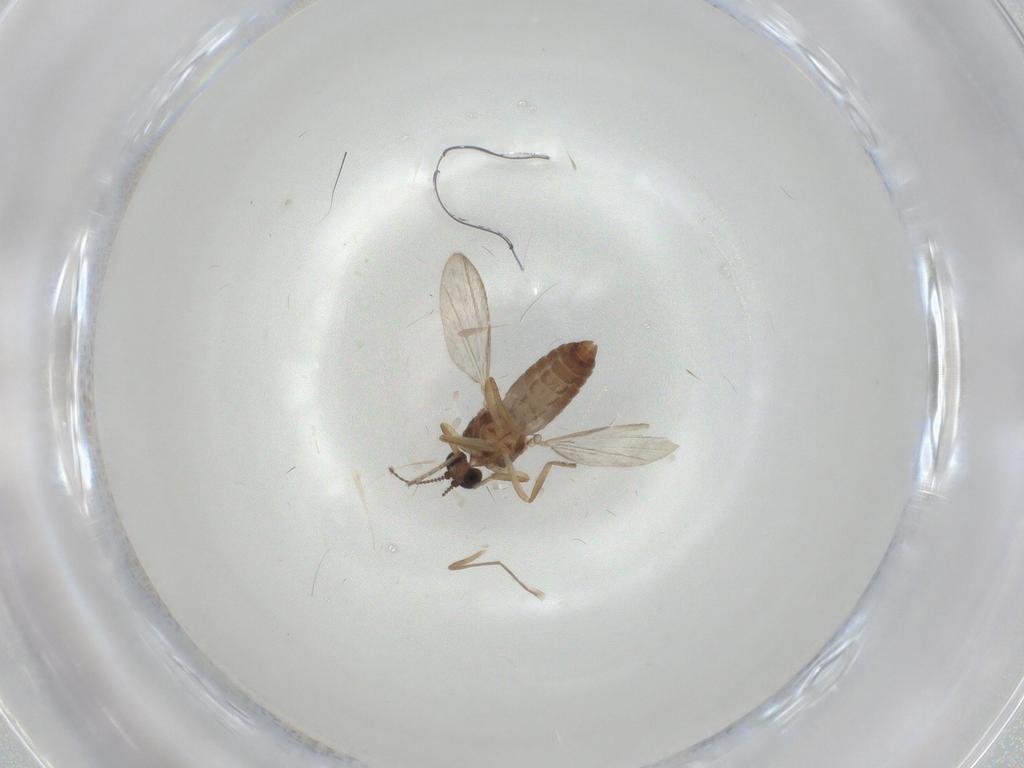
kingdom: Animalia
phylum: Arthropoda
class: Insecta
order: Diptera
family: Ceratopogonidae
